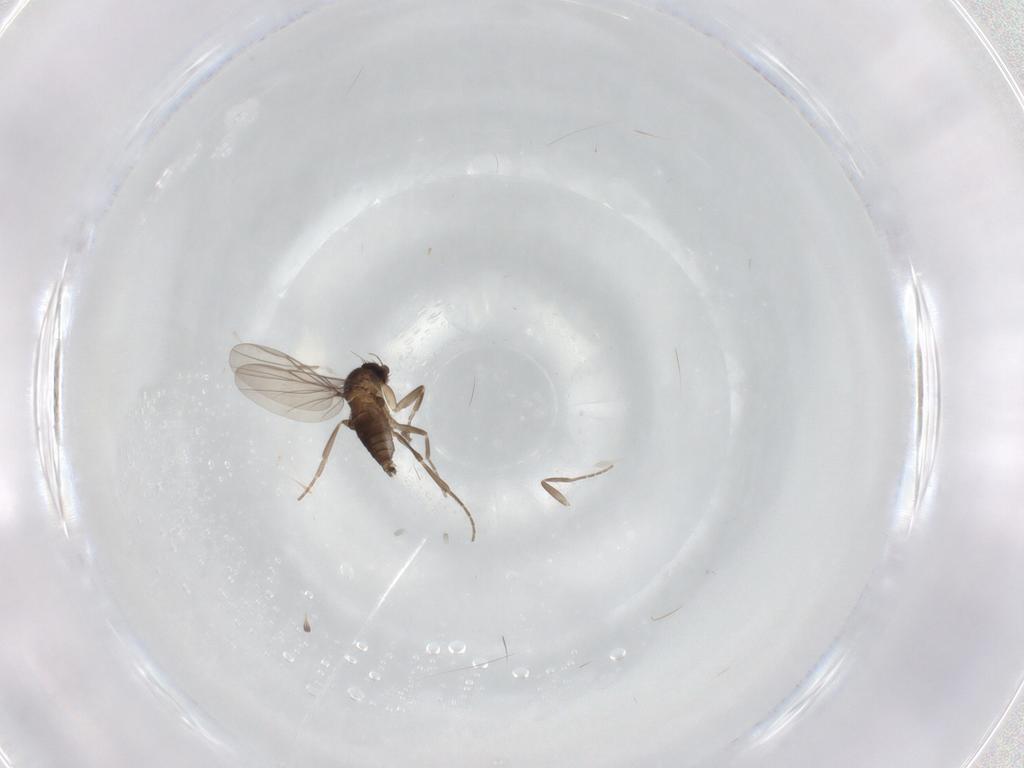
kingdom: Animalia
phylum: Arthropoda
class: Insecta
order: Diptera
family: Phoridae
